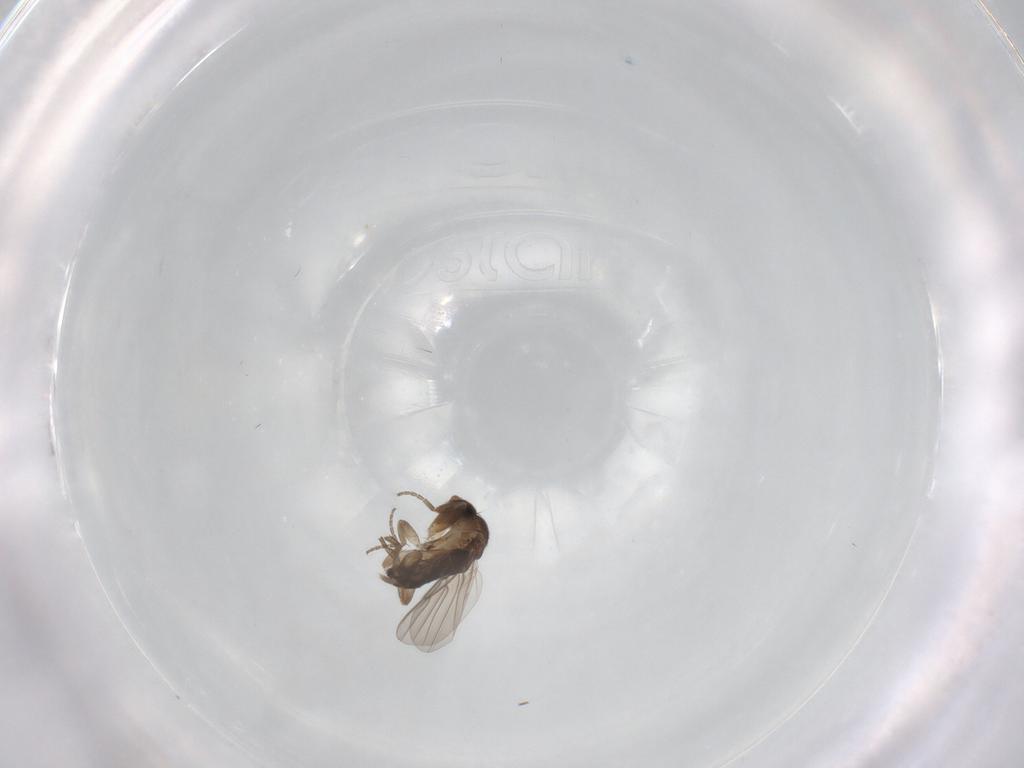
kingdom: Animalia
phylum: Arthropoda
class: Insecta
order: Diptera
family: Phoridae
